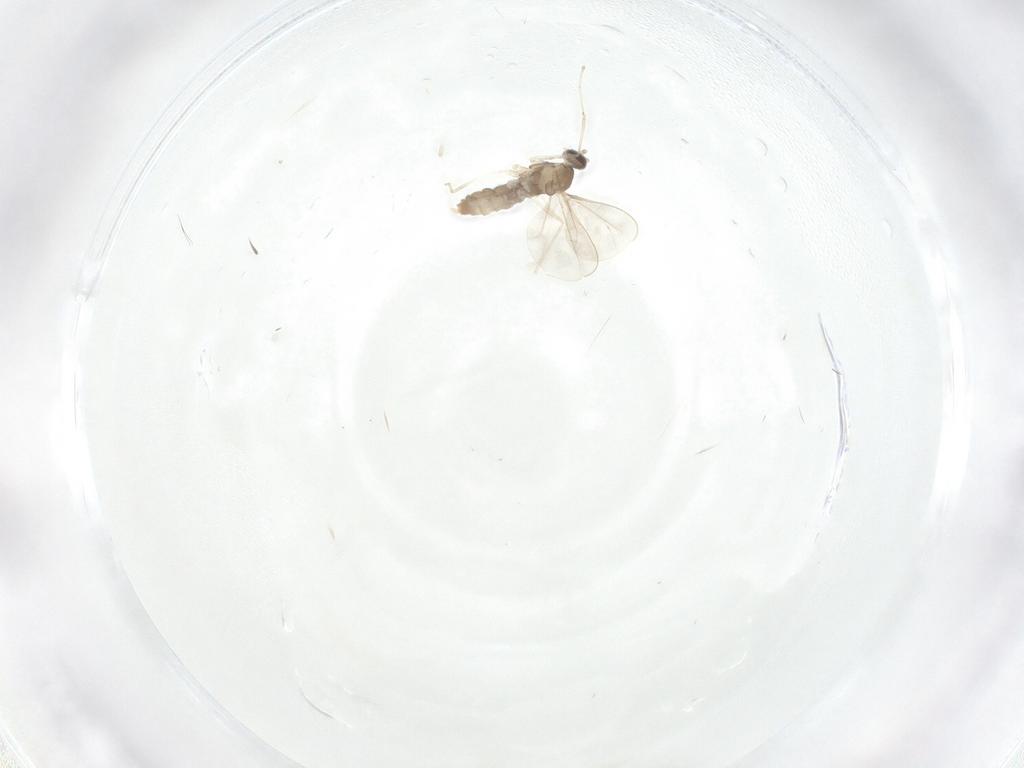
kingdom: Animalia
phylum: Arthropoda
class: Insecta
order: Diptera
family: Cecidomyiidae
